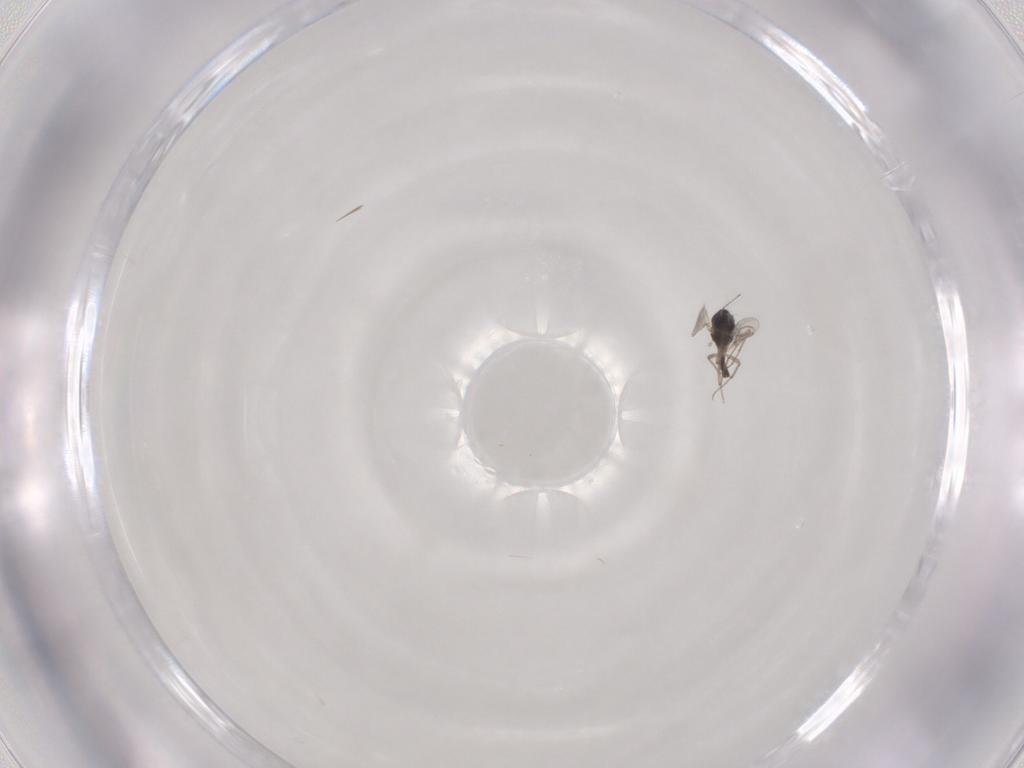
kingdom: Animalia
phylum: Arthropoda
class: Insecta
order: Diptera
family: Chironomidae
